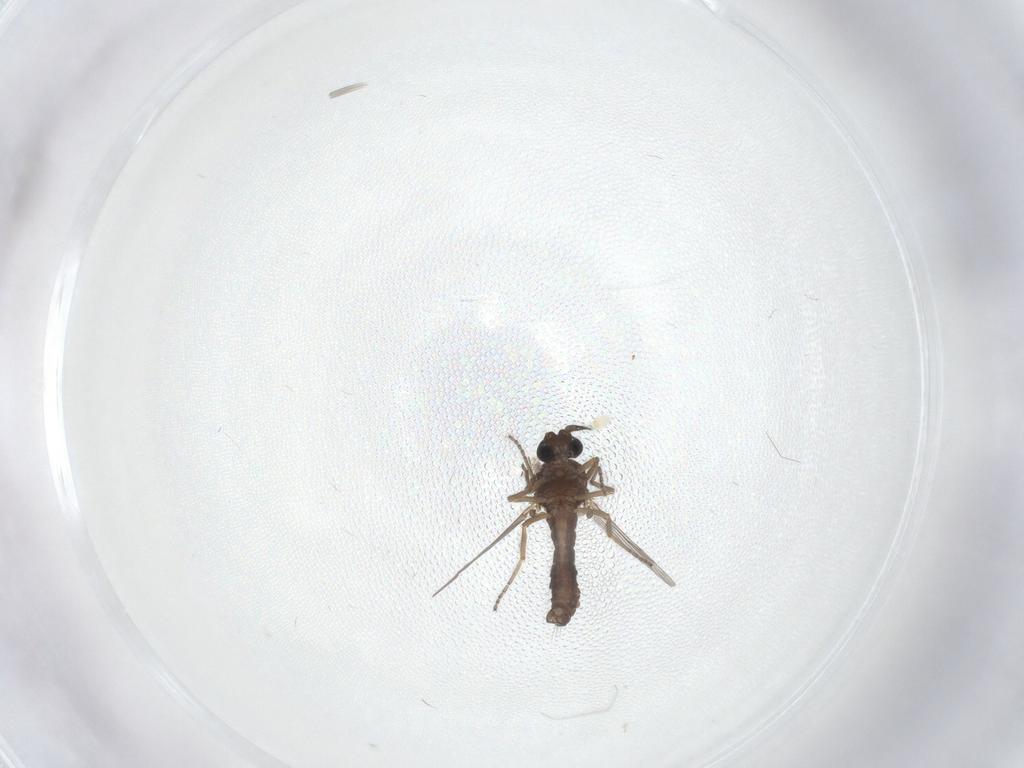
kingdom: Animalia
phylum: Arthropoda
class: Insecta
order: Diptera
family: Ceratopogonidae
